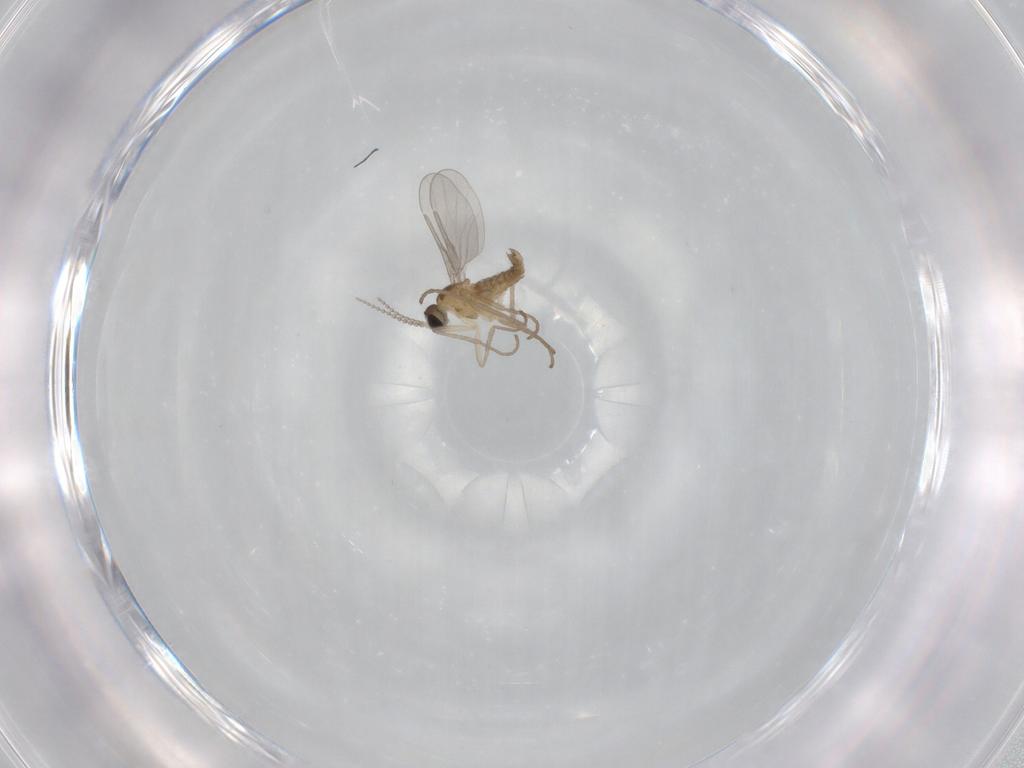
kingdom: Animalia
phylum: Arthropoda
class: Insecta
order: Diptera
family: Cecidomyiidae
